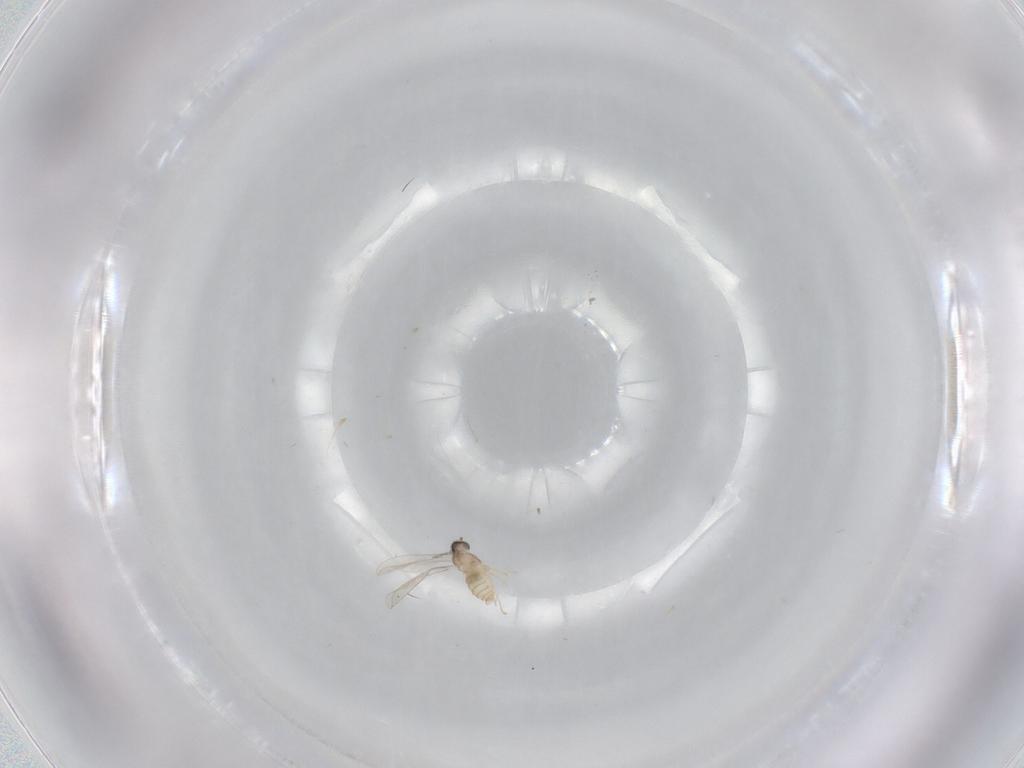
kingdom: Animalia
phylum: Arthropoda
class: Insecta
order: Diptera
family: Cecidomyiidae
